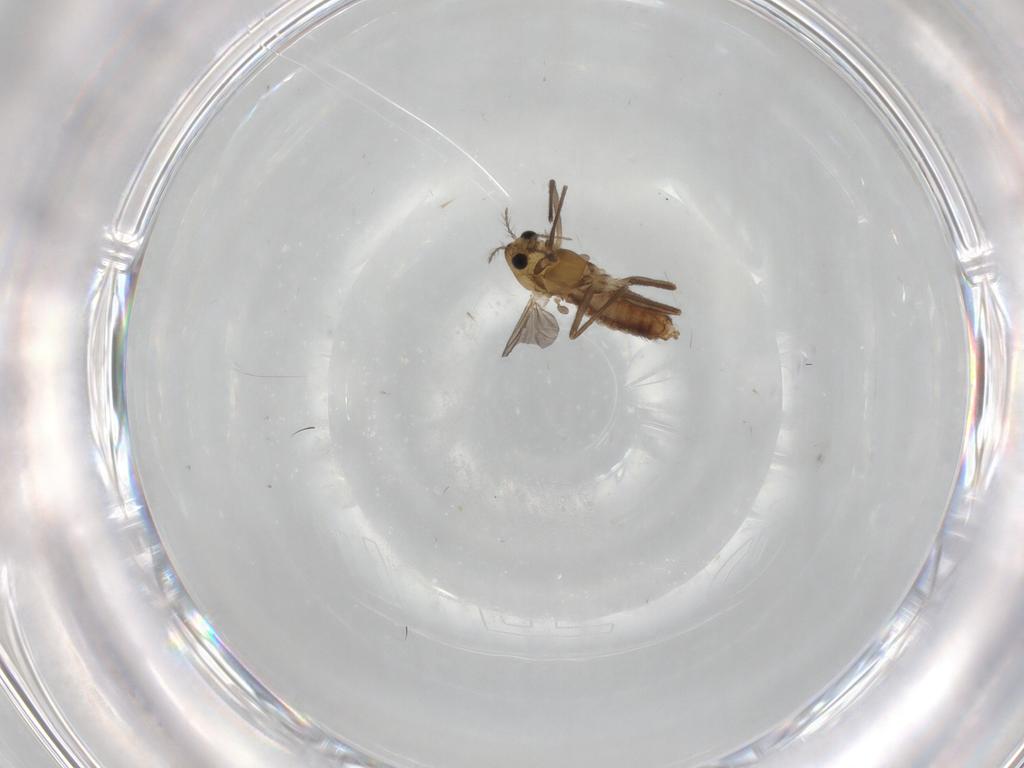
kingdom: Animalia
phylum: Arthropoda
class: Insecta
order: Diptera
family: Chironomidae
